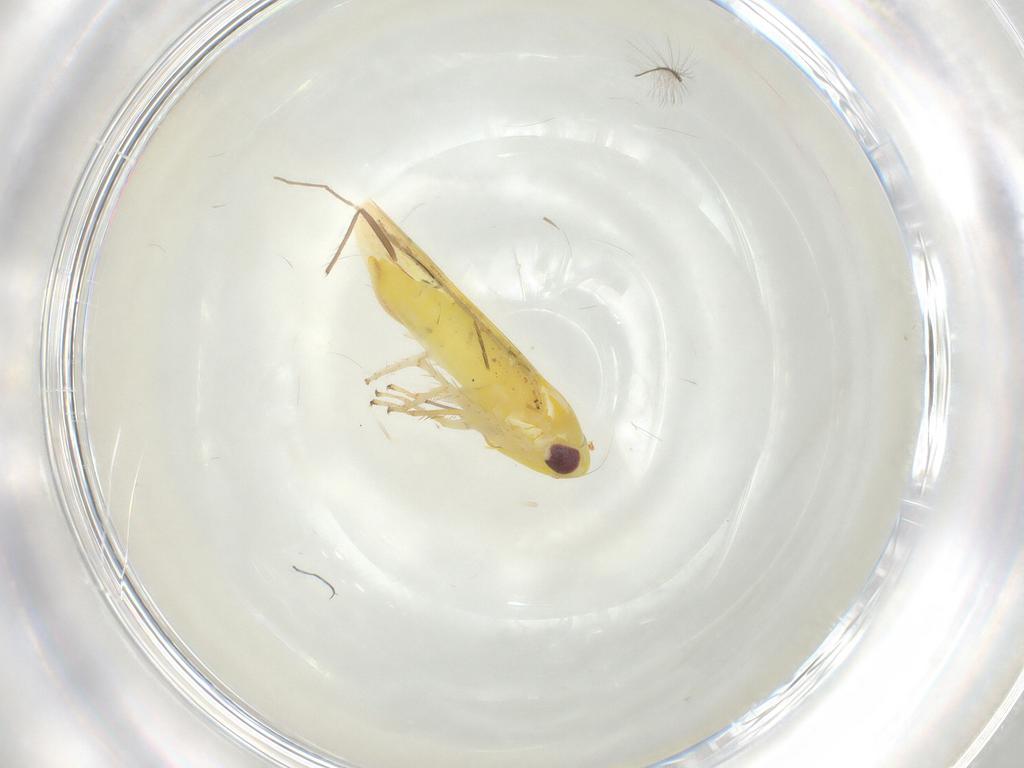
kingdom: Animalia
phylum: Arthropoda
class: Insecta
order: Hemiptera
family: Cicadellidae
